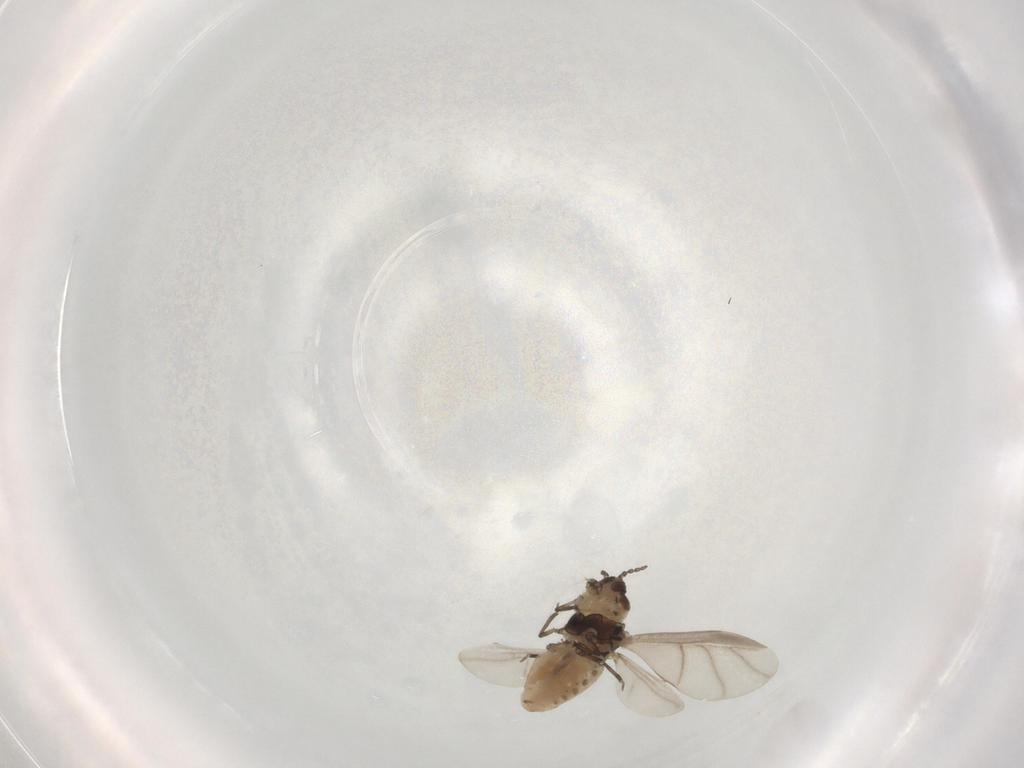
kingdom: Animalia
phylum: Arthropoda
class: Insecta
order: Hemiptera
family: Adelgidae
